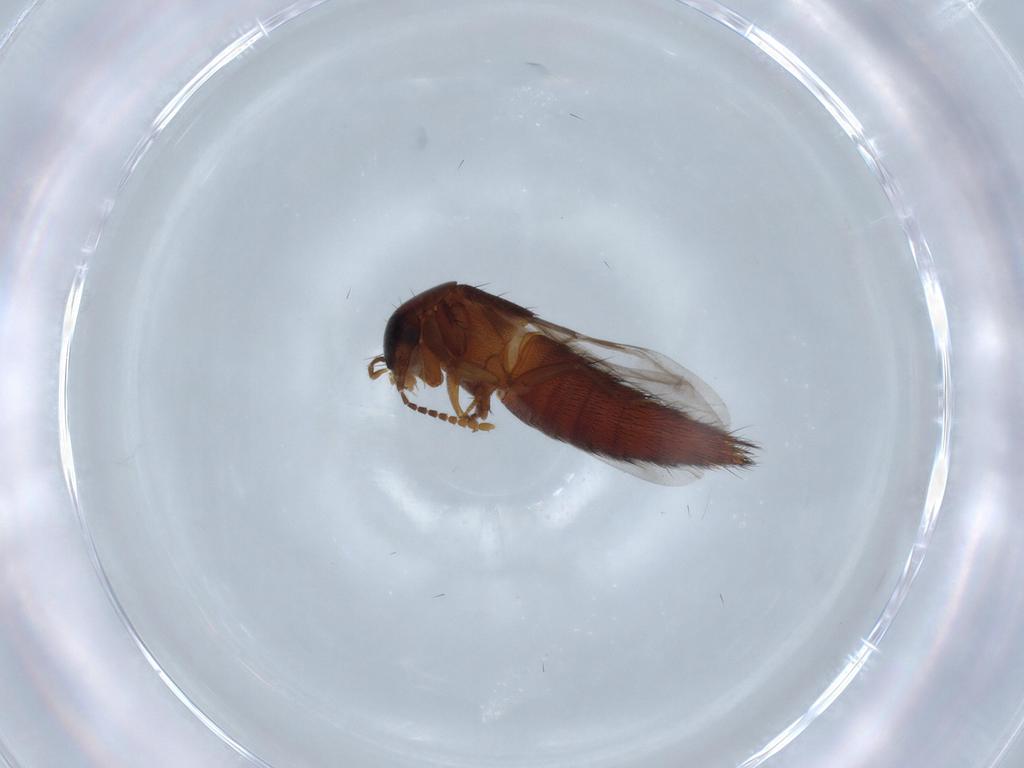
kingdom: Animalia
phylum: Arthropoda
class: Insecta
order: Coleoptera
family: Staphylinidae
